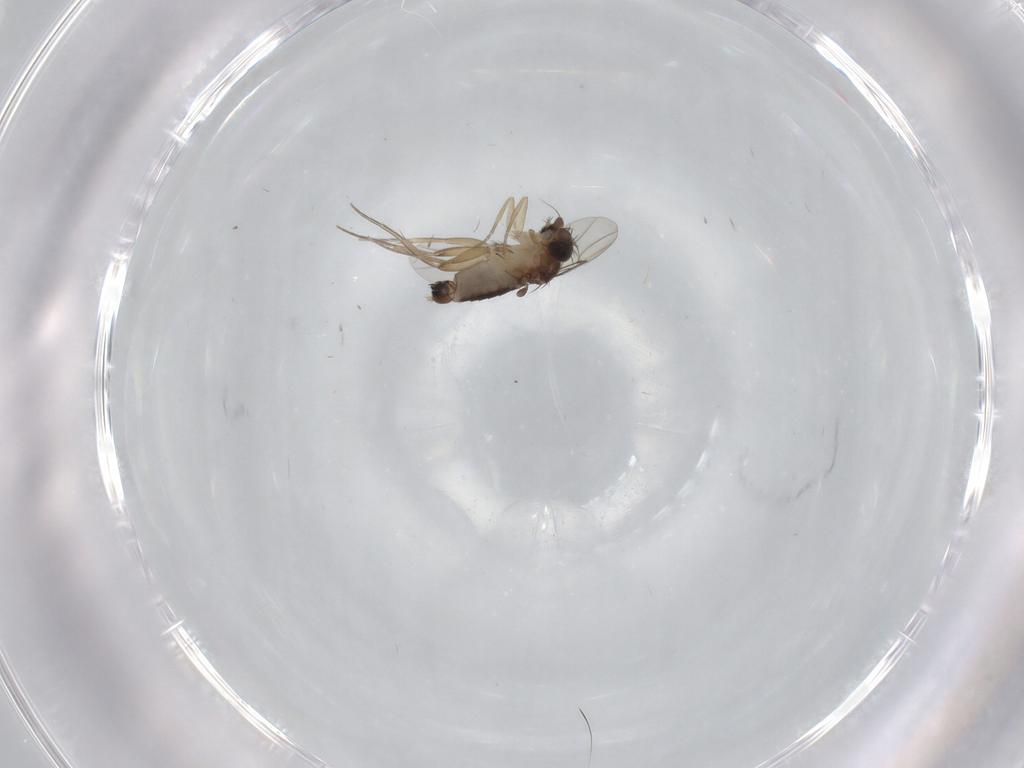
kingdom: Animalia
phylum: Arthropoda
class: Insecta
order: Diptera
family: Phoridae
